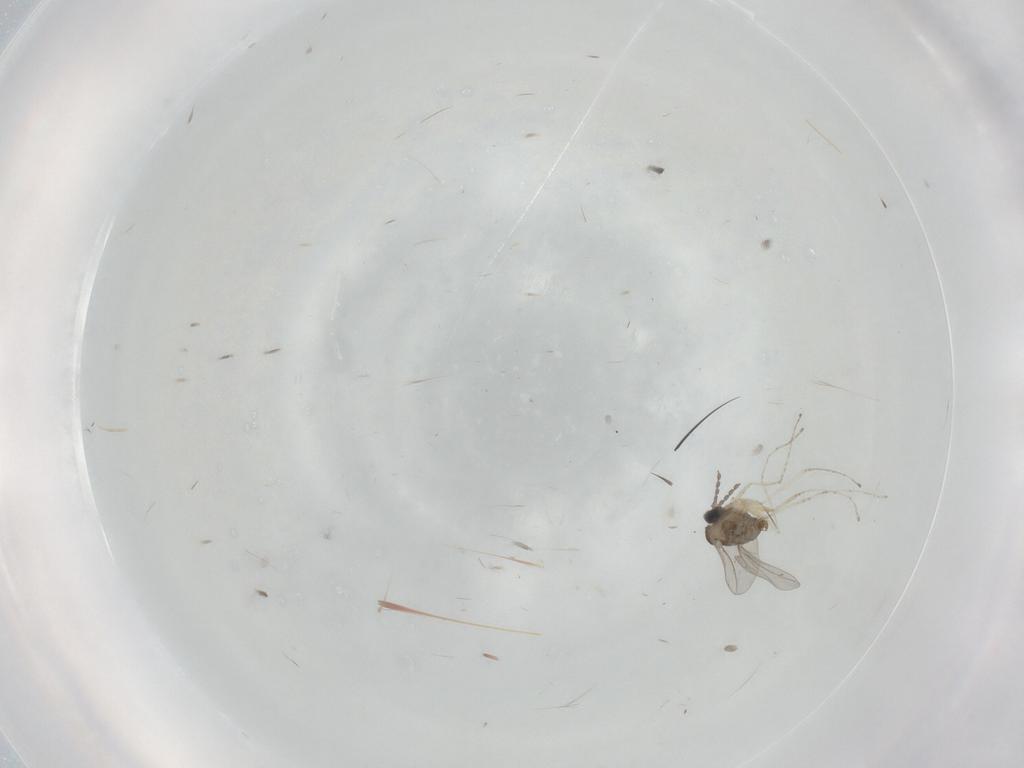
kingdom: Animalia
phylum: Arthropoda
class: Insecta
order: Diptera
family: Cecidomyiidae
